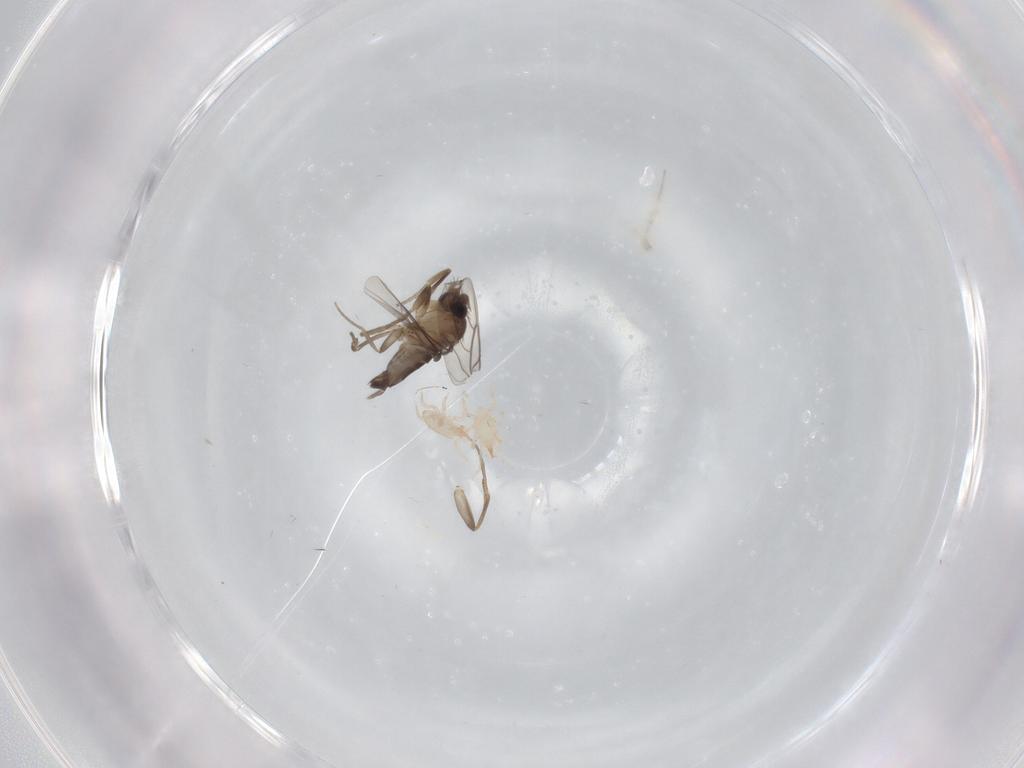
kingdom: Animalia
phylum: Arthropoda
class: Insecta
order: Diptera
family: Phoridae
